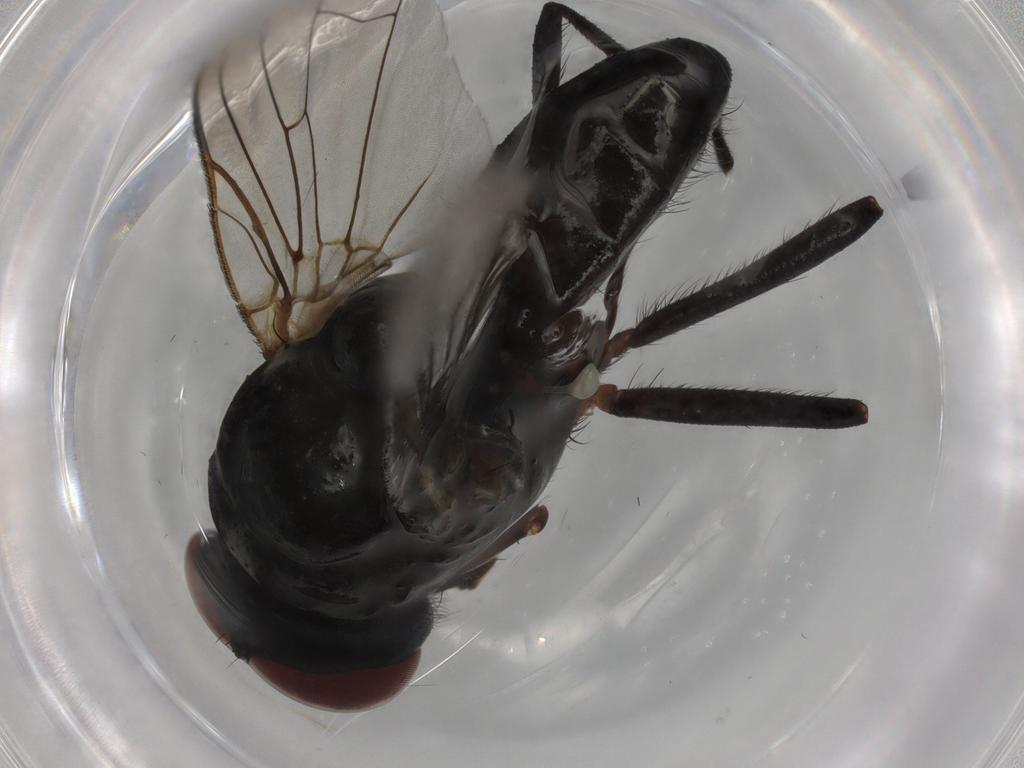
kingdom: Animalia
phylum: Arthropoda
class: Insecta
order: Diptera
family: Anthomyiidae
